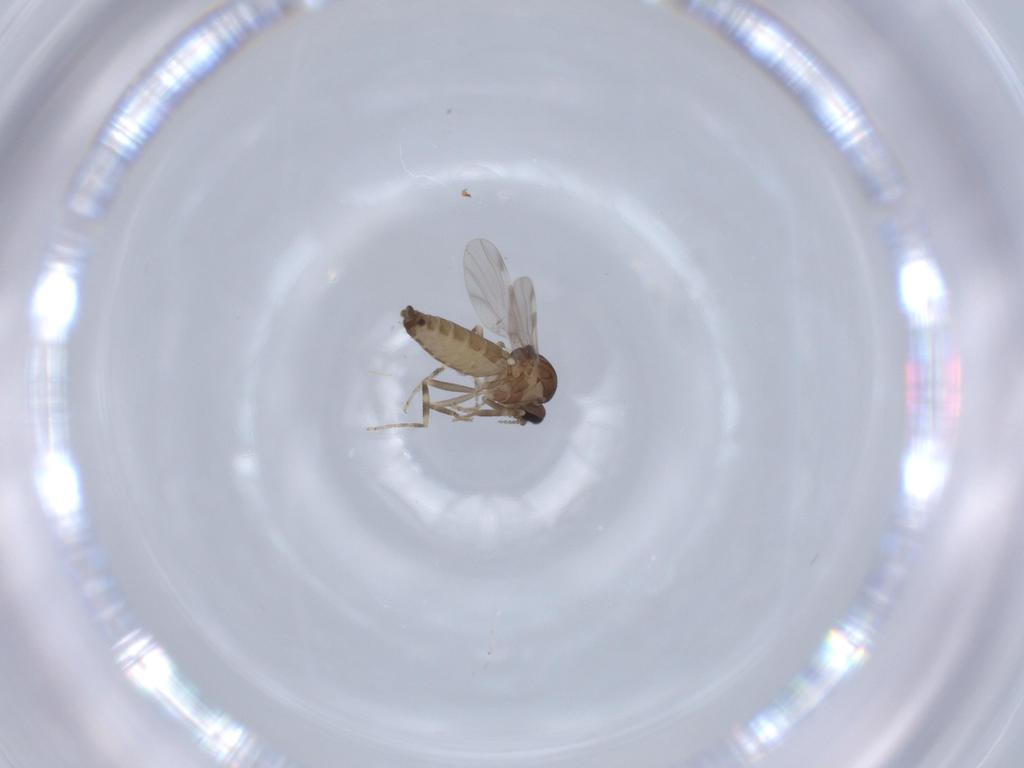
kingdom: Animalia
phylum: Arthropoda
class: Insecta
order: Diptera
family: Ceratopogonidae
